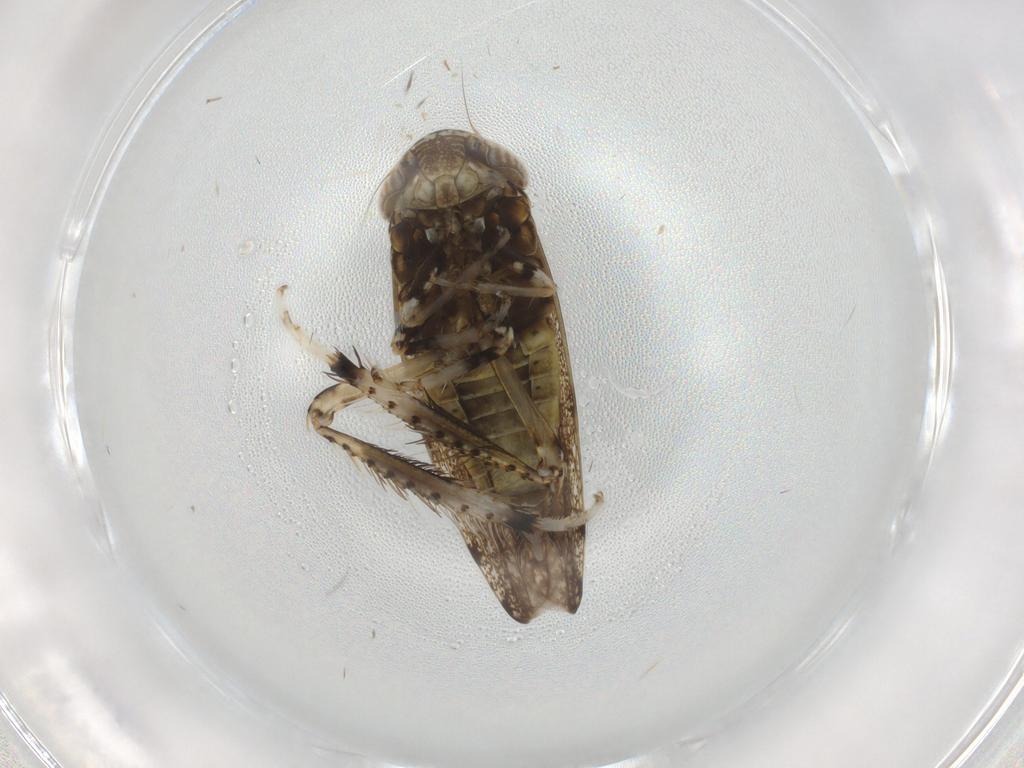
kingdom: Animalia
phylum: Arthropoda
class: Insecta
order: Hemiptera
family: Cicadellidae
